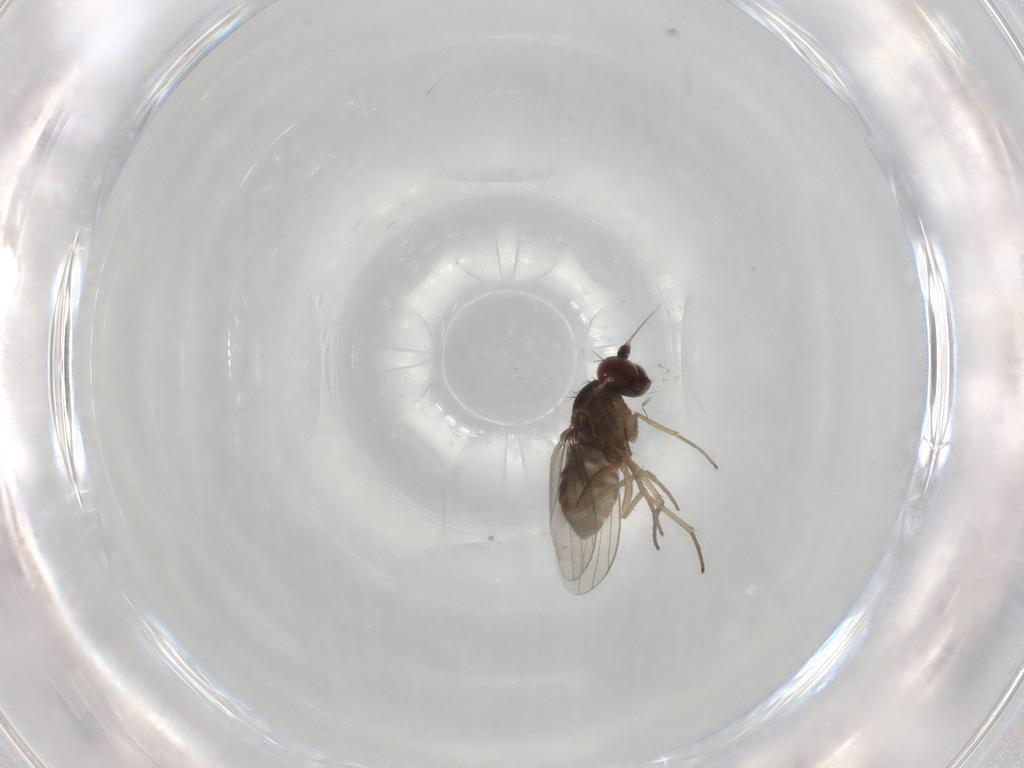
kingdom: Animalia
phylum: Arthropoda
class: Insecta
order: Diptera
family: Dolichopodidae
